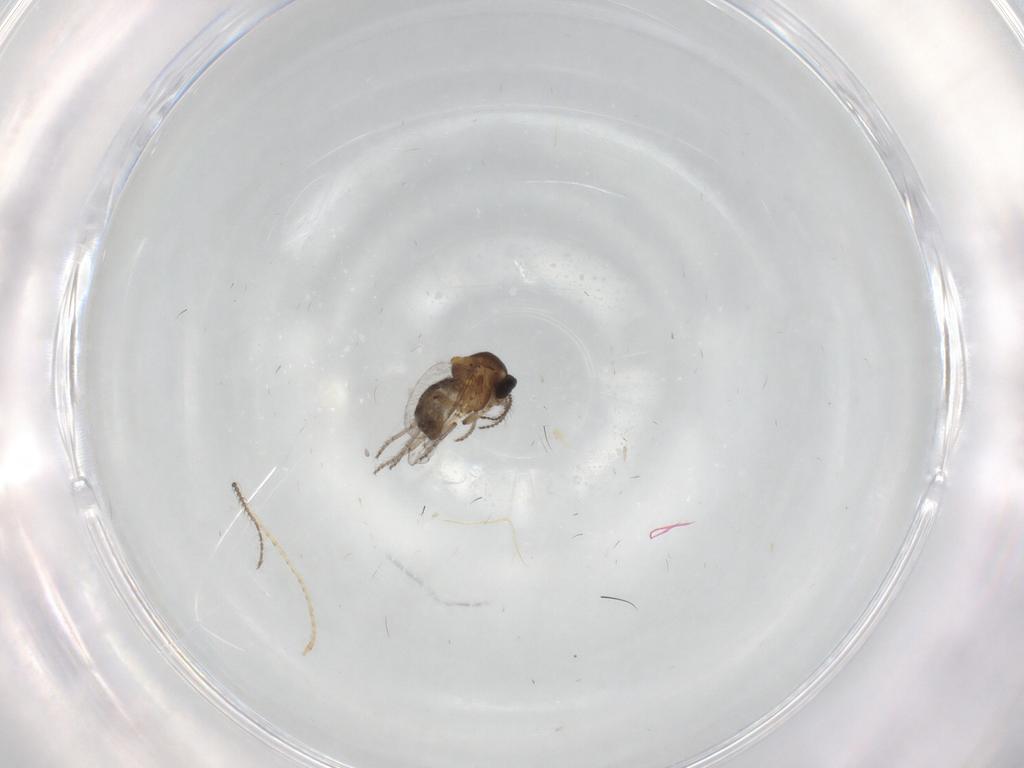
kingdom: Animalia
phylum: Arthropoda
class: Insecta
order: Diptera
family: Ceratopogonidae
